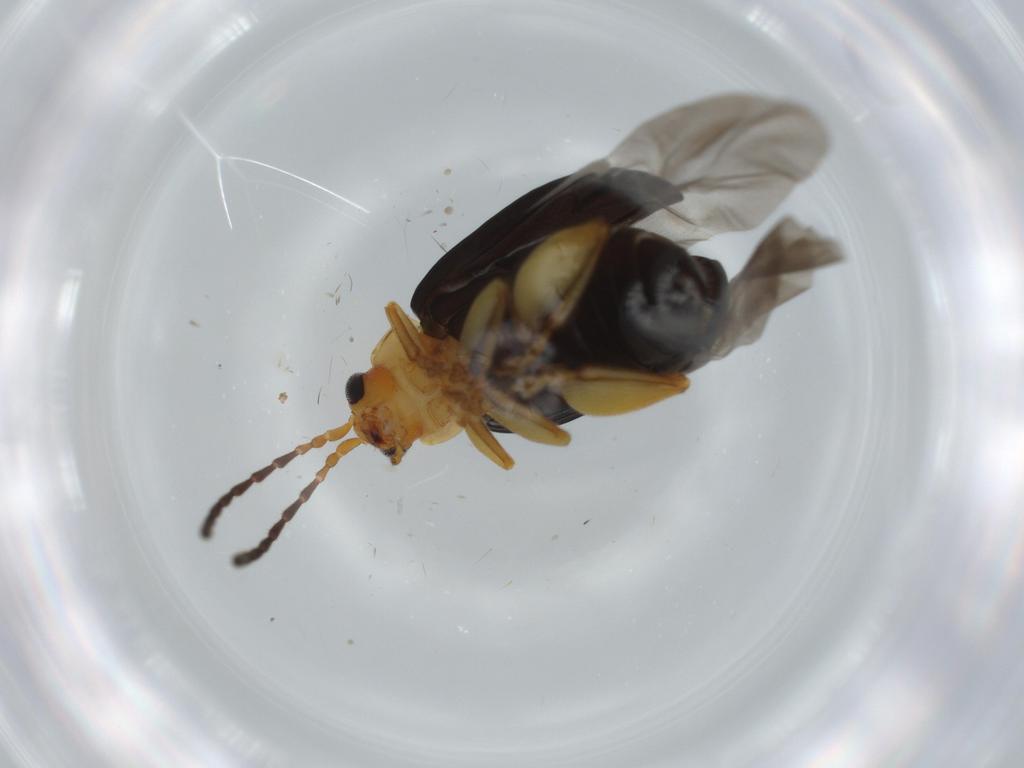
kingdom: Animalia
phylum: Arthropoda
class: Insecta
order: Coleoptera
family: Chrysomelidae
